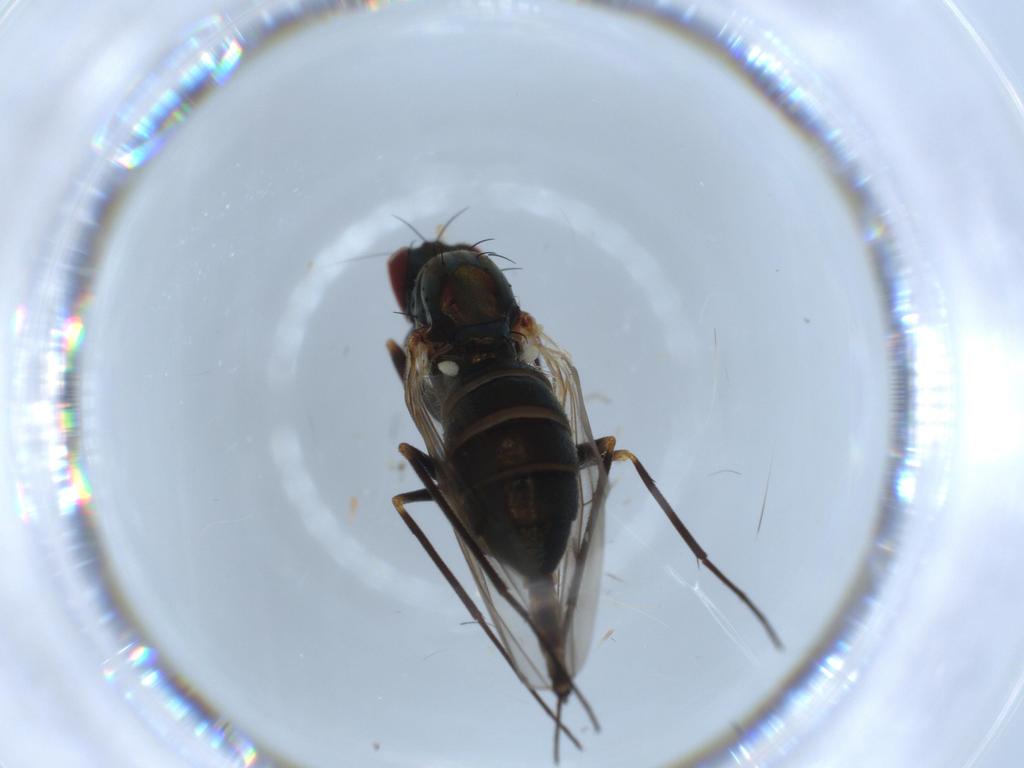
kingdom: Animalia
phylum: Arthropoda
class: Insecta
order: Diptera
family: Dolichopodidae
